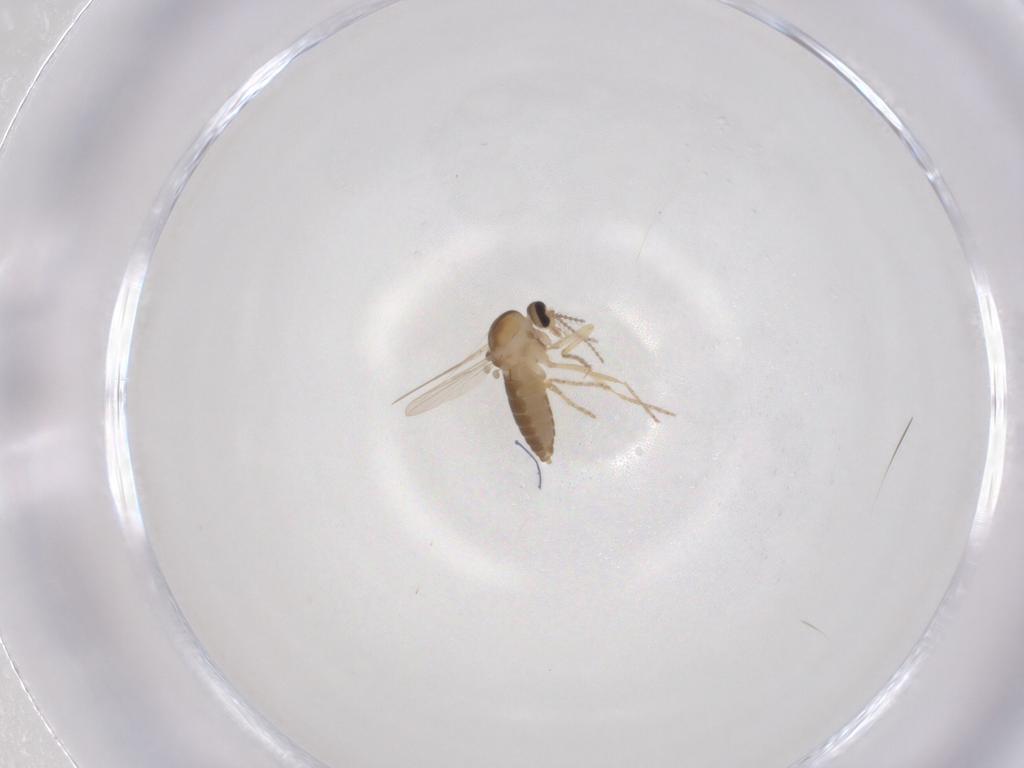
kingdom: Animalia
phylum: Arthropoda
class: Insecta
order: Diptera
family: Ceratopogonidae
